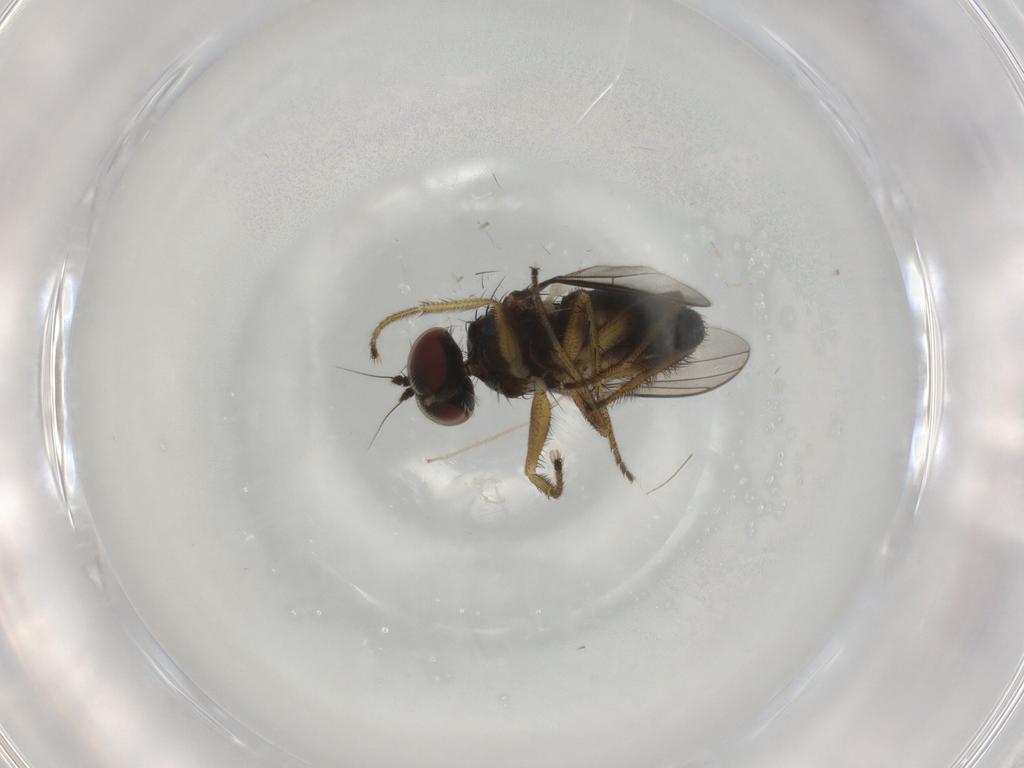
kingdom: Animalia
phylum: Arthropoda
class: Insecta
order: Diptera
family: Dolichopodidae
